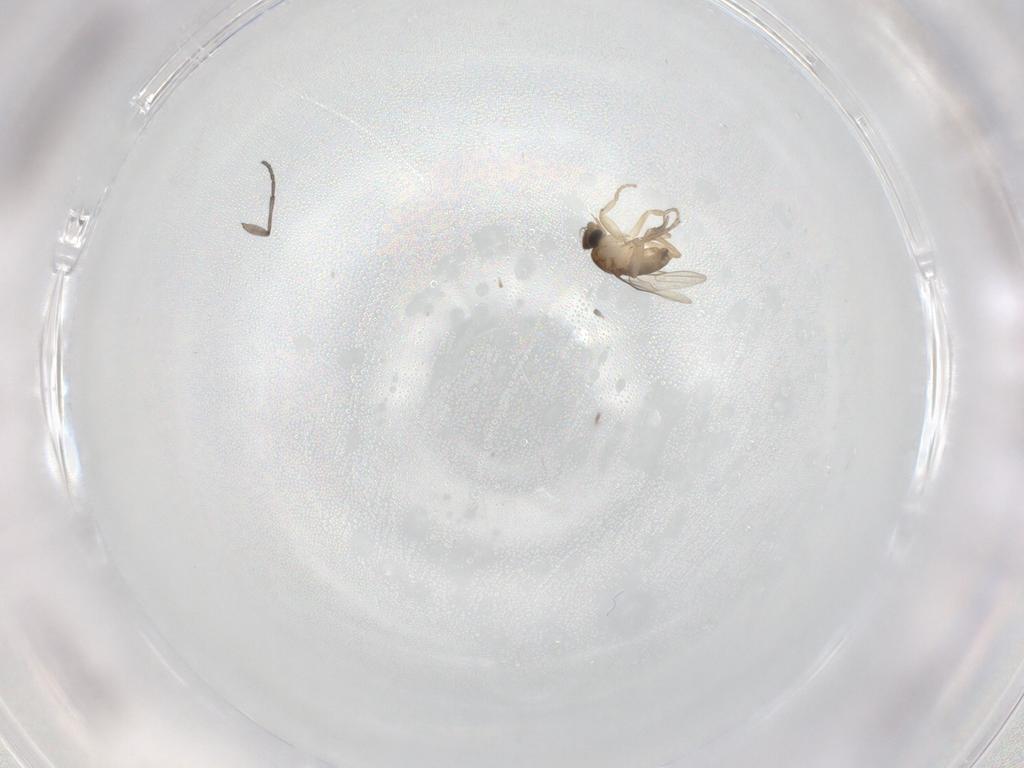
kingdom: Animalia
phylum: Arthropoda
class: Insecta
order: Diptera
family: Sciaridae
